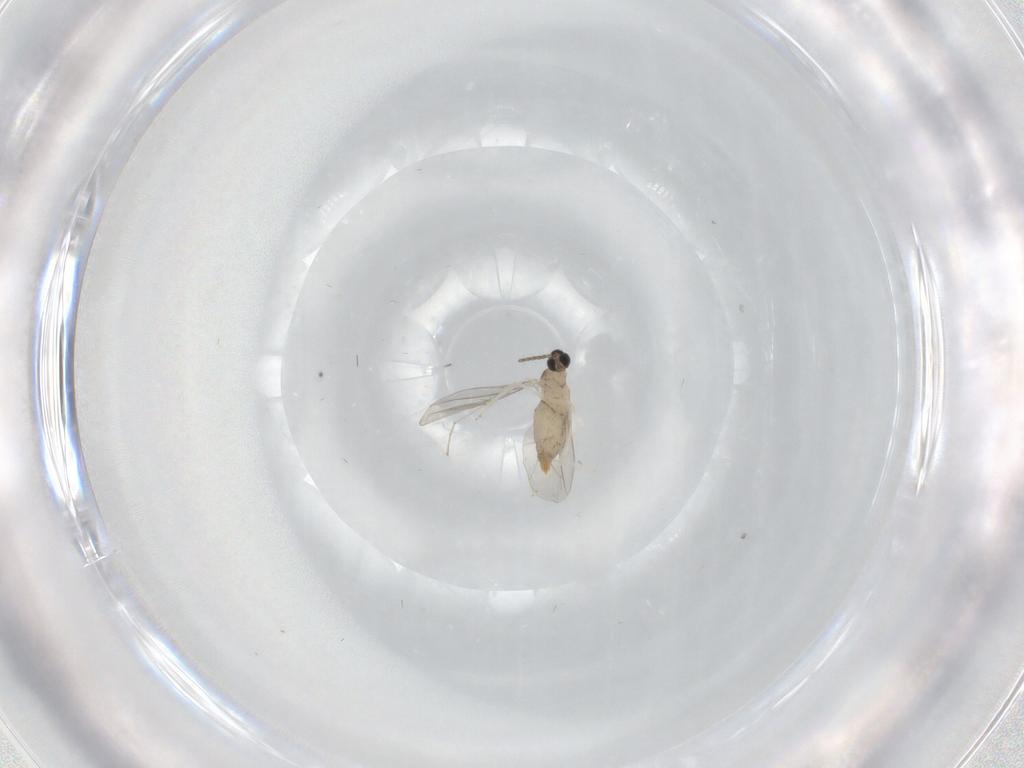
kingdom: Animalia
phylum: Arthropoda
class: Insecta
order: Diptera
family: Cecidomyiidae
